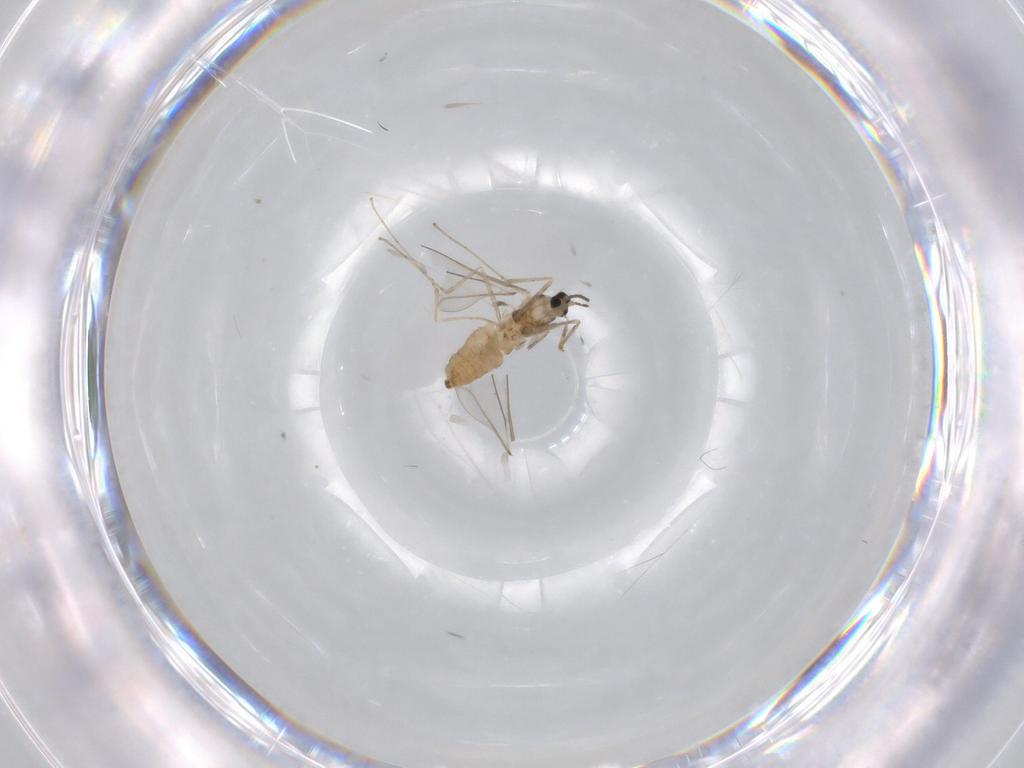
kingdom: Animalia
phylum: Arthropoda
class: Insecta
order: Diptera
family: Cecidomyiidae
